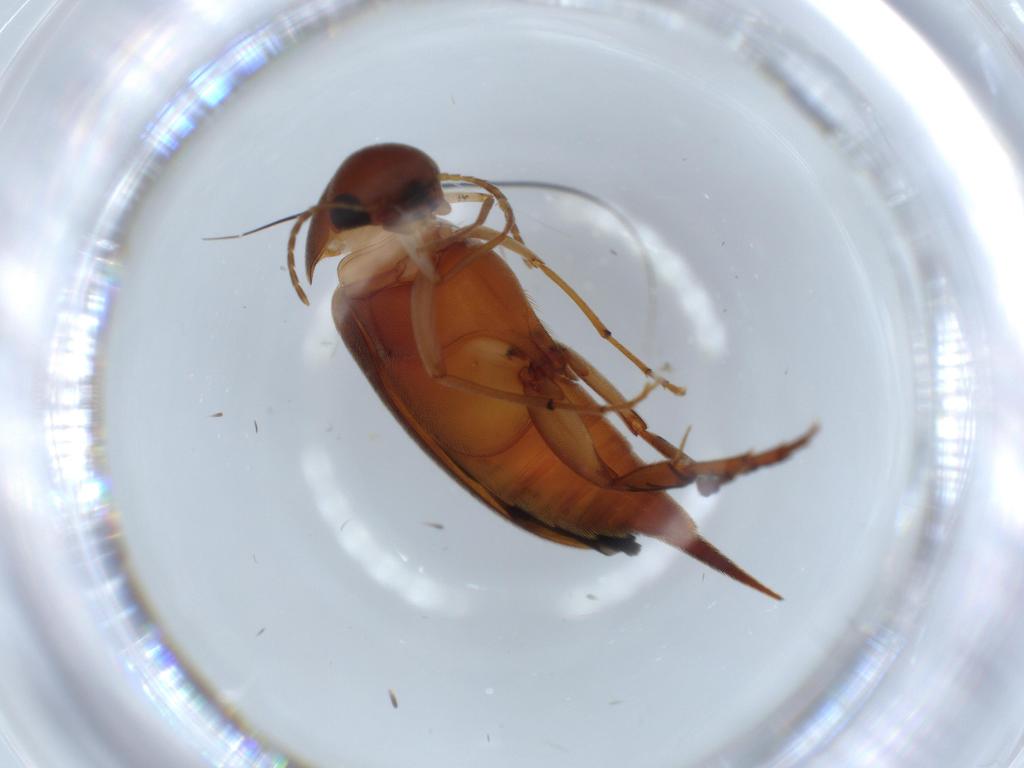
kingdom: Animalia
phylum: Arthropoda
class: Insecta
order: Coleoptera
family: Mordellidae
